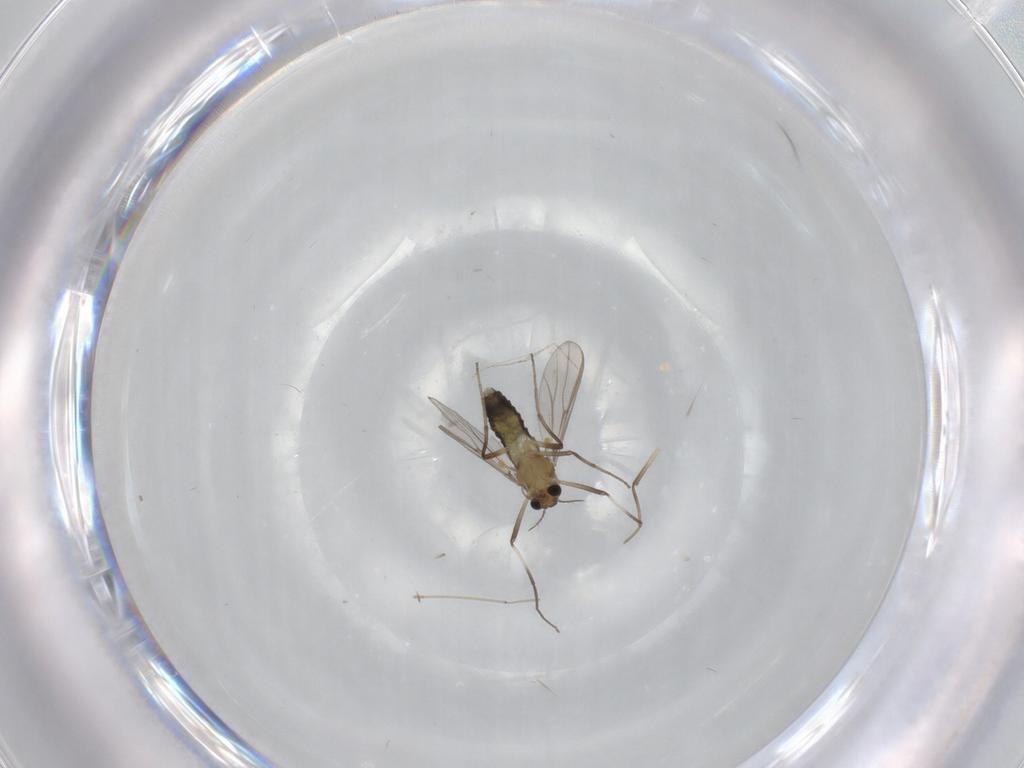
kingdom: Animalia
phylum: Arthropoda
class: Insecta
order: Diptera
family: Chironomidae
